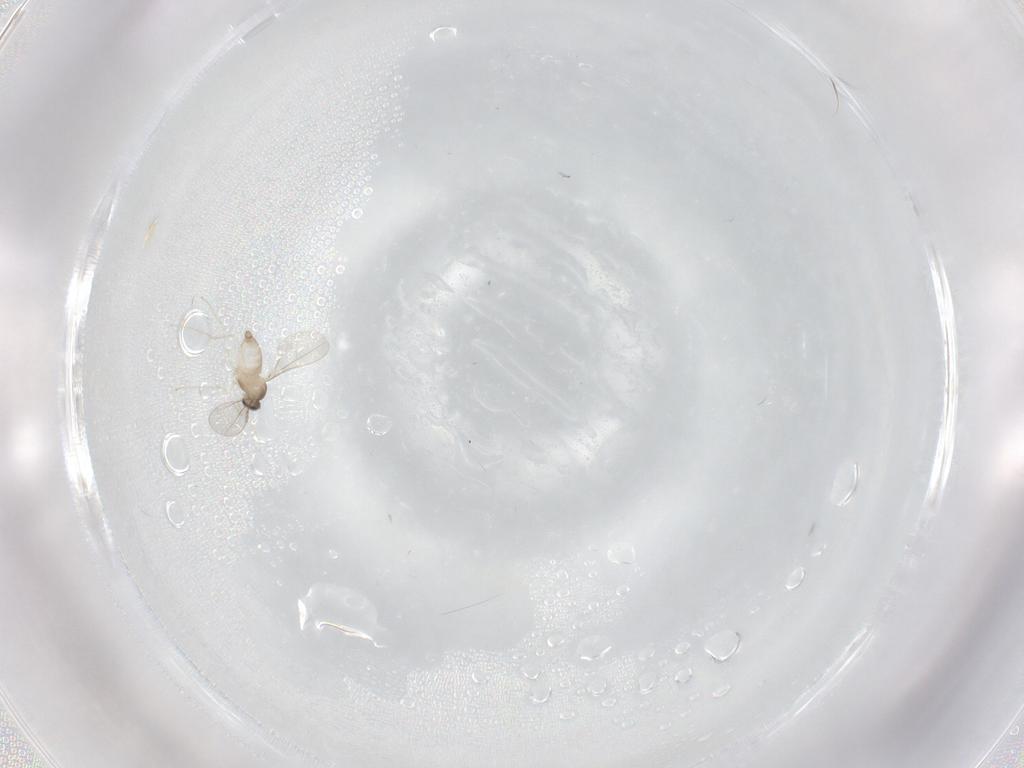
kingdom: Animalia
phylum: Arthropoda
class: Insecta
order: Diptera
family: Cecidomyiidae
